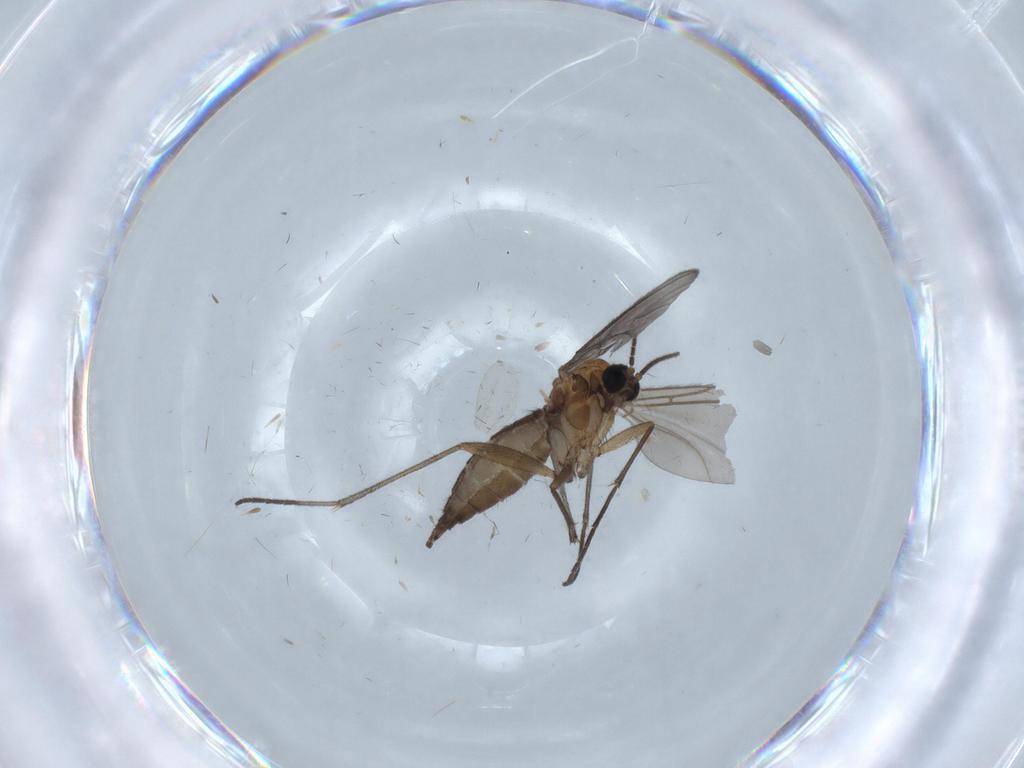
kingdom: Animalia
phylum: Arthropoda
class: Insecta
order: Diptera
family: Sciaridae
